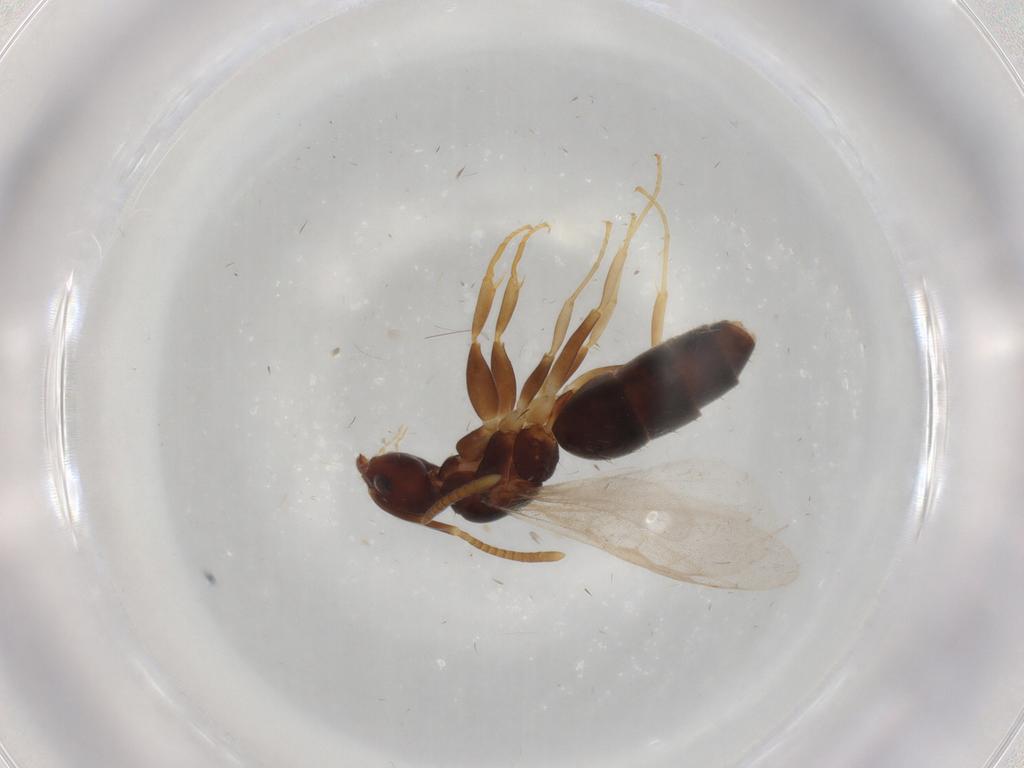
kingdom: Animalia
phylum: Arthropoda
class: Insecta
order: Hymenoptera
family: Formicidae
